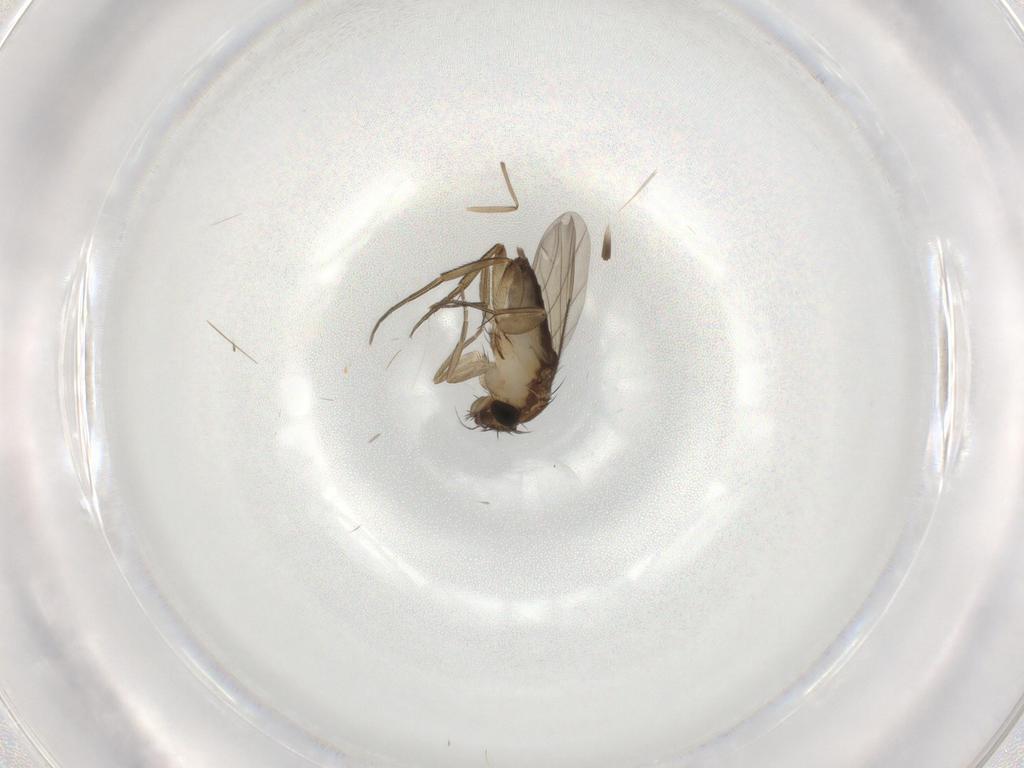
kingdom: Animalia
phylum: Arthropoda
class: Insecta
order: Diptera
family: Phoridae
